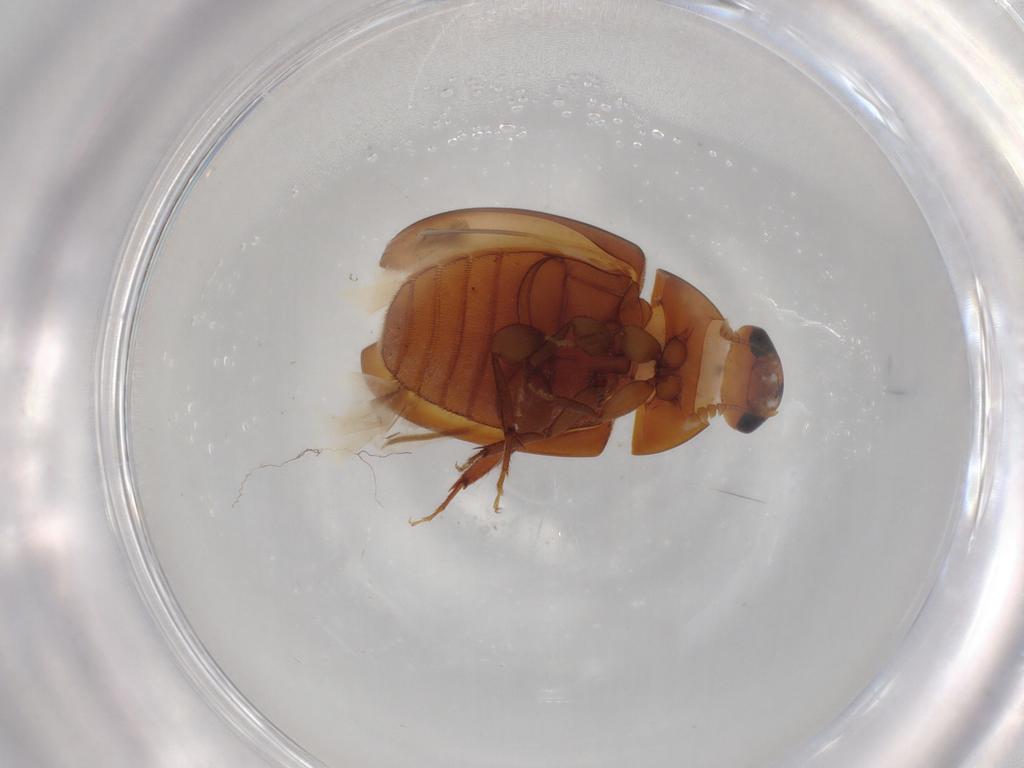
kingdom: Animalia
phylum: Arthropoda
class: Insecta
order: Coleoptera
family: Phalacridae
